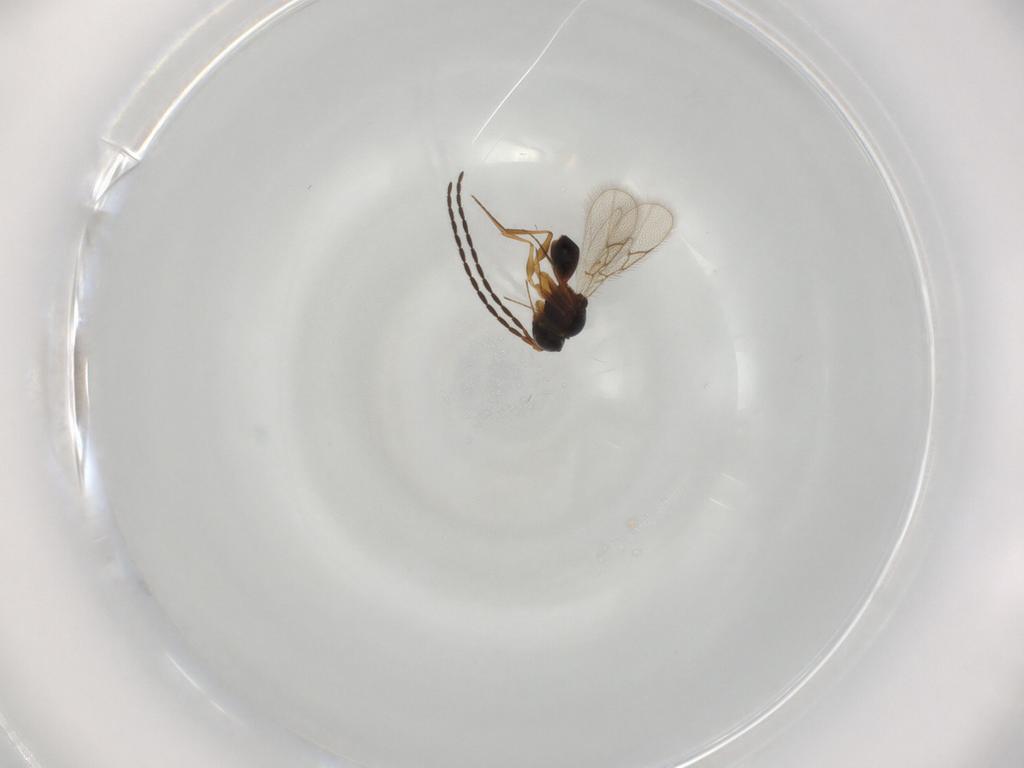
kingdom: Animalia
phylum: Arthropoda
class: Insecta
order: Hymenoptera
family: Figitidae
